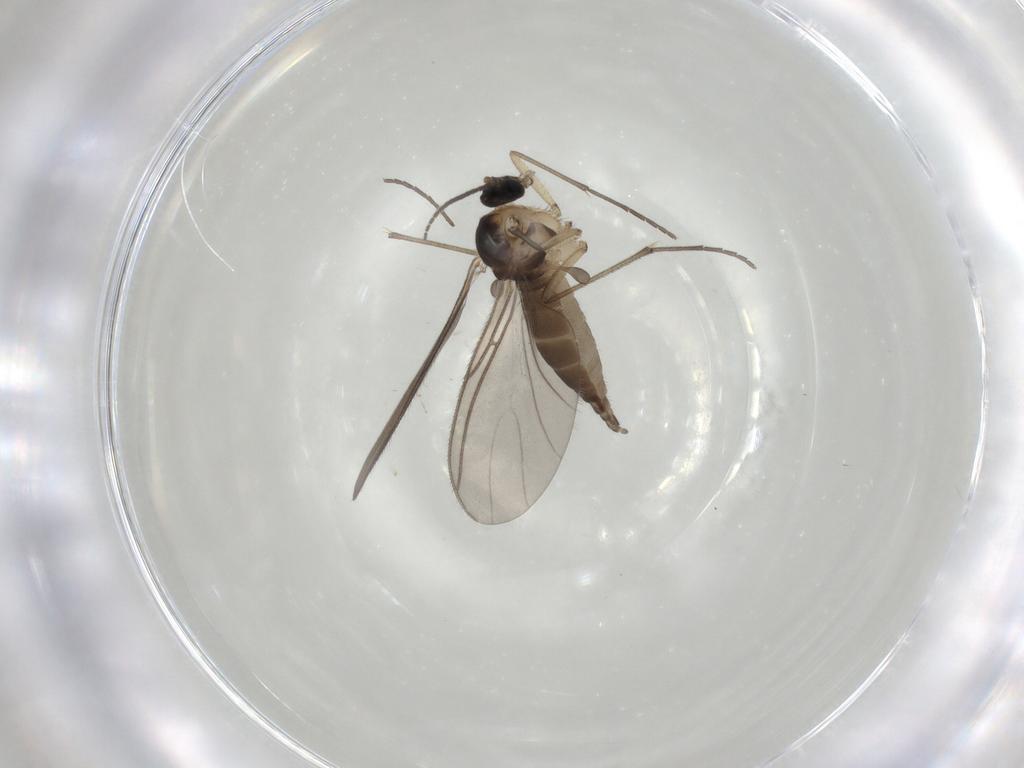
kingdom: Animalia
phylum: Arthropoda
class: Insecta
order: Diptera
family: Sciaridae
